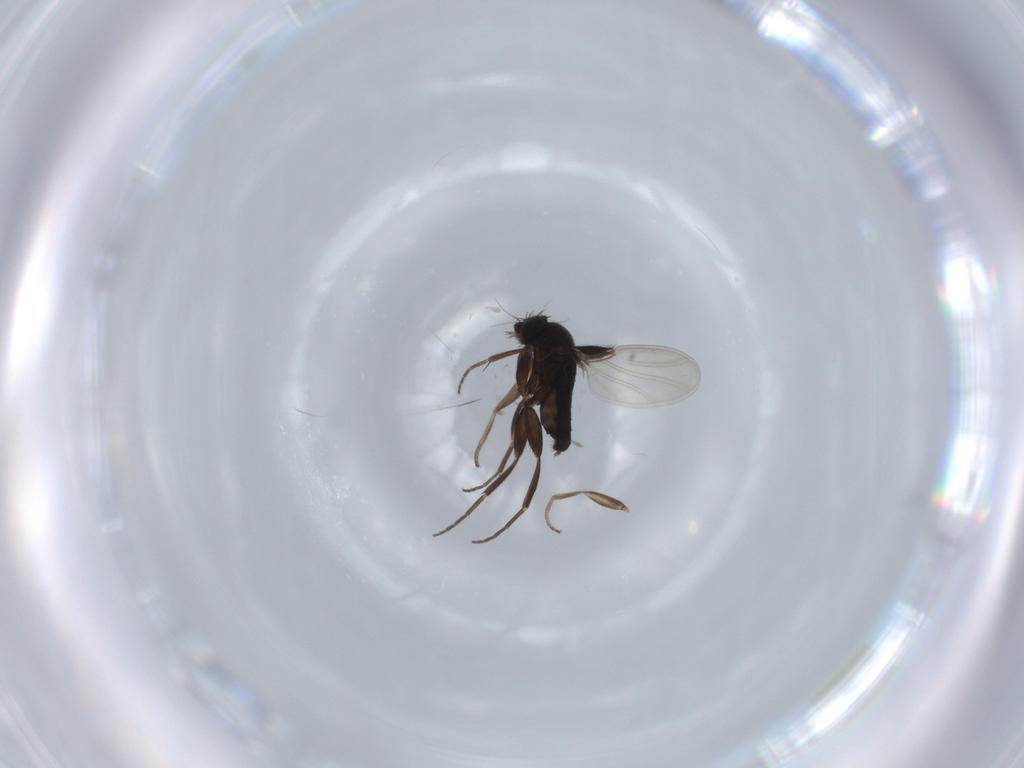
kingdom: Animalia
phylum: Arthropoda
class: Insecta
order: Diptera
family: Phoridae
